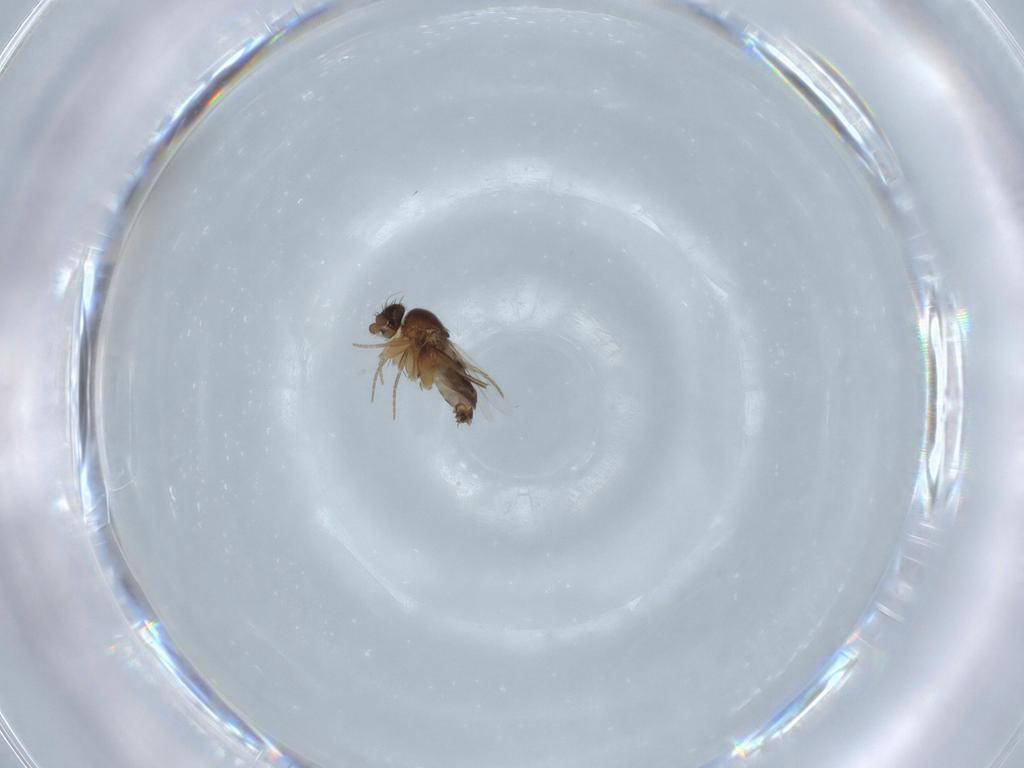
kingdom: Animalia
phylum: Arthropoda
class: Insecta
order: Diptera
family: Phoridae
